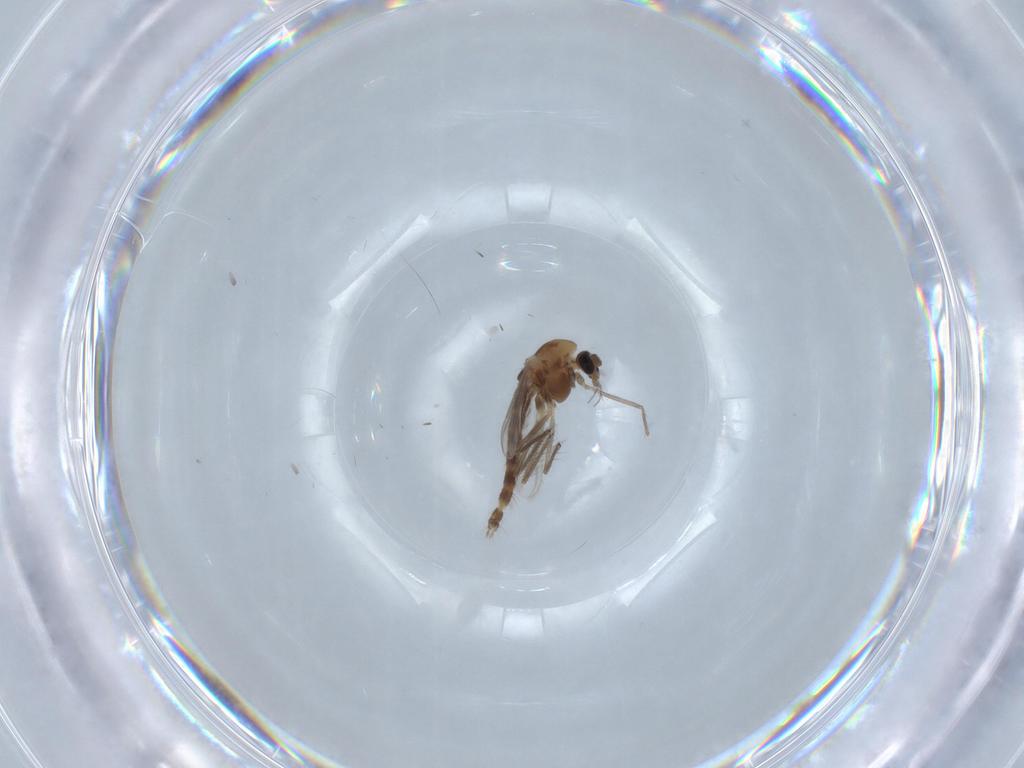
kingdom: Animalia
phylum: Arthropoda
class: Insecta
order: Diptera
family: Chironomidae
